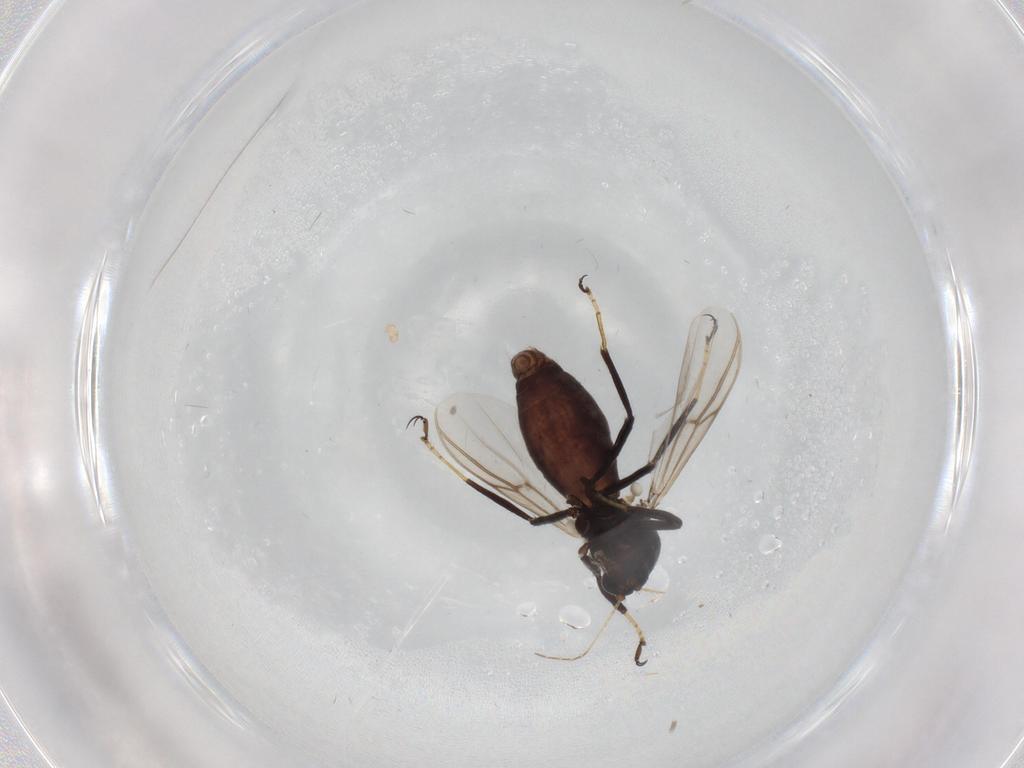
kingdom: Animalia
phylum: Arthropoda
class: Insecta
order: Diptera
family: Ceratopogonidae
